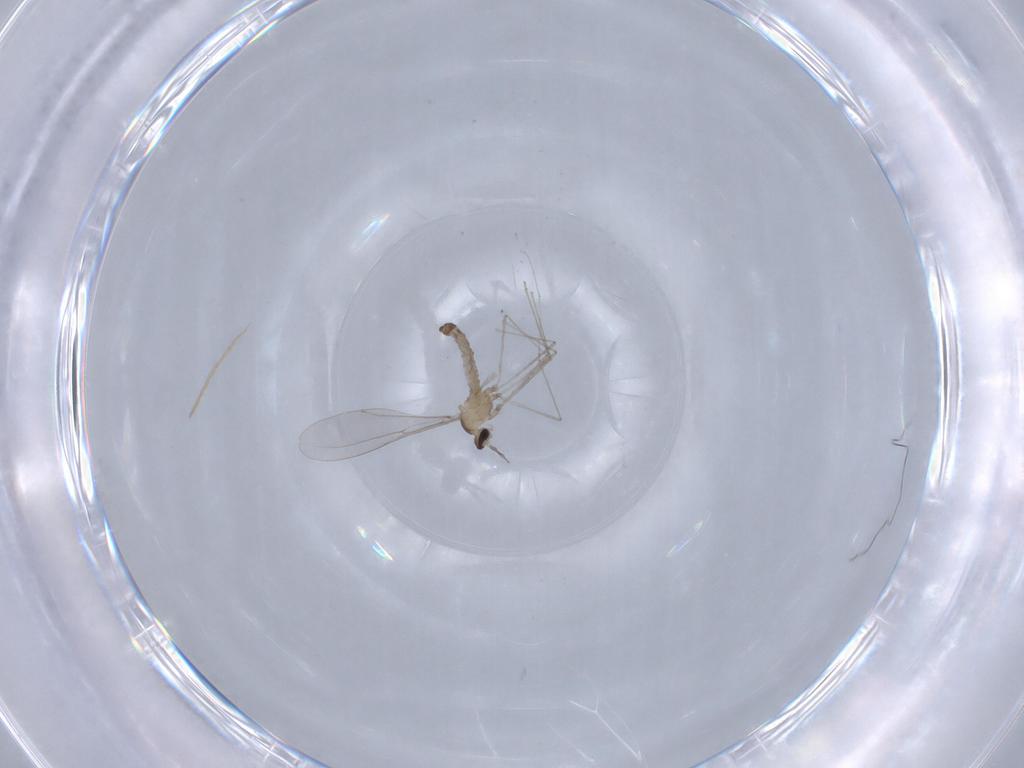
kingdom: Animalia
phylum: Arthropoda
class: Insecta
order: Diptera
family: Cecidomyiidae
